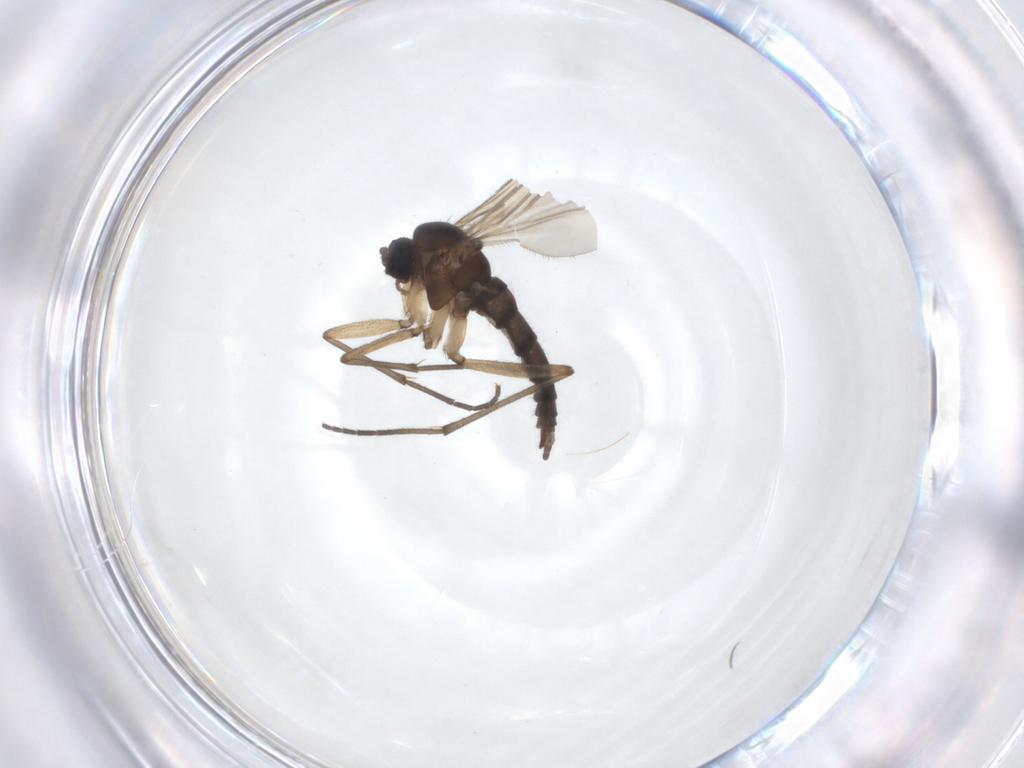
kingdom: Animalia
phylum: Arthropoda
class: Insecta
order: Diptera
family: Sciaridae
